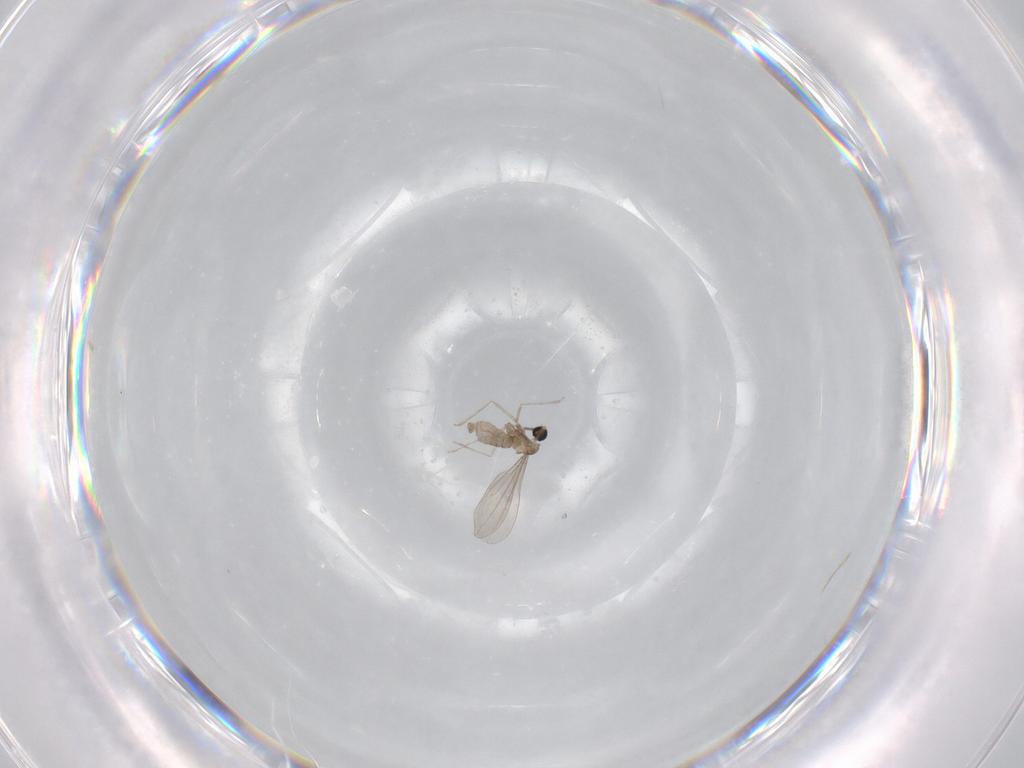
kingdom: Animalia
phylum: Arthropoda
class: Insecta
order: Diptera
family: Cecidomyiidae
